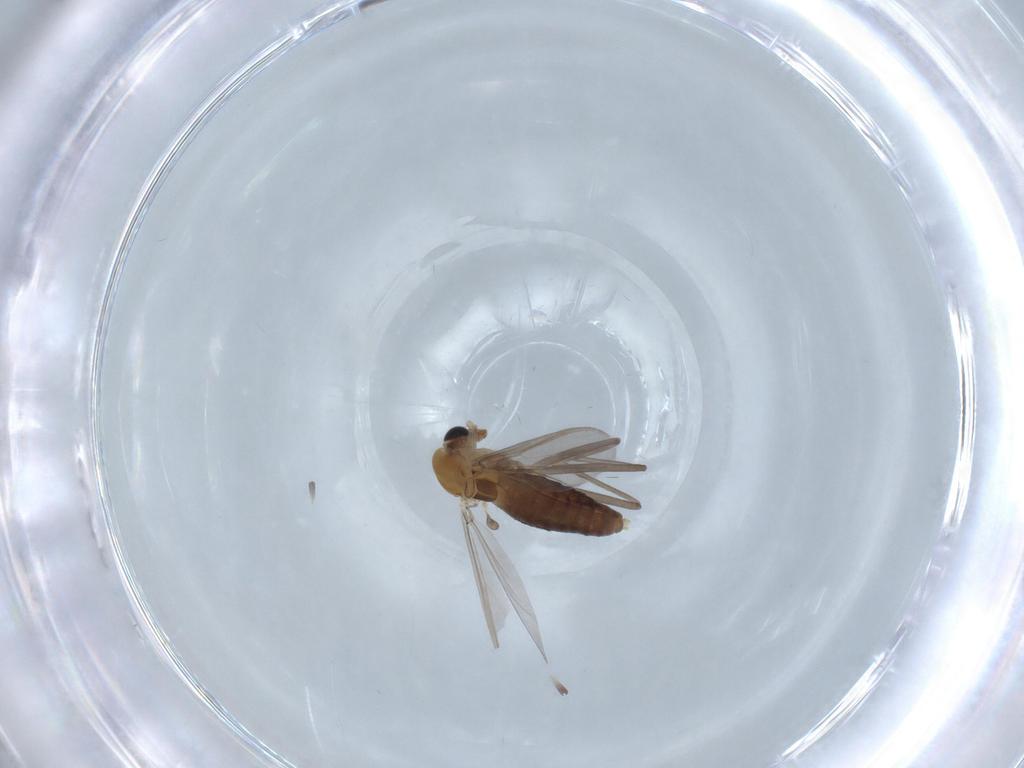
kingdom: Animalia
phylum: Arthropoda
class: Insecta
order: Diptera
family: Chironomidae
